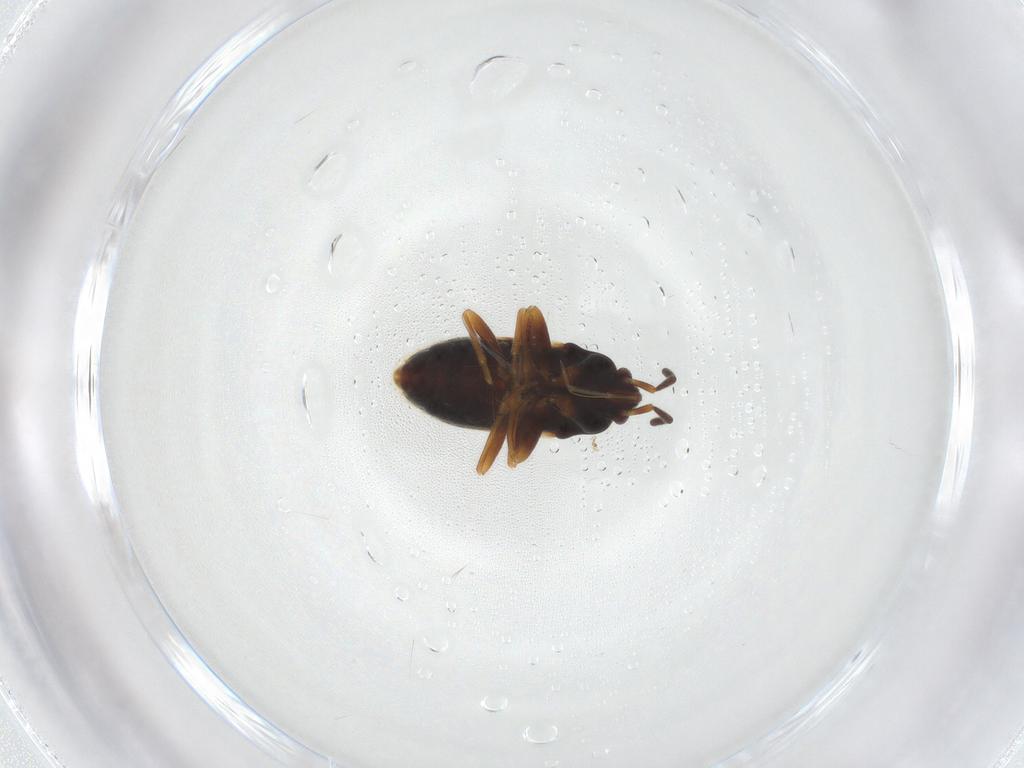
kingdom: Animalia
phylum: Arthropoda
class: Insecta
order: Hemiptera
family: Rhyparochromidae
